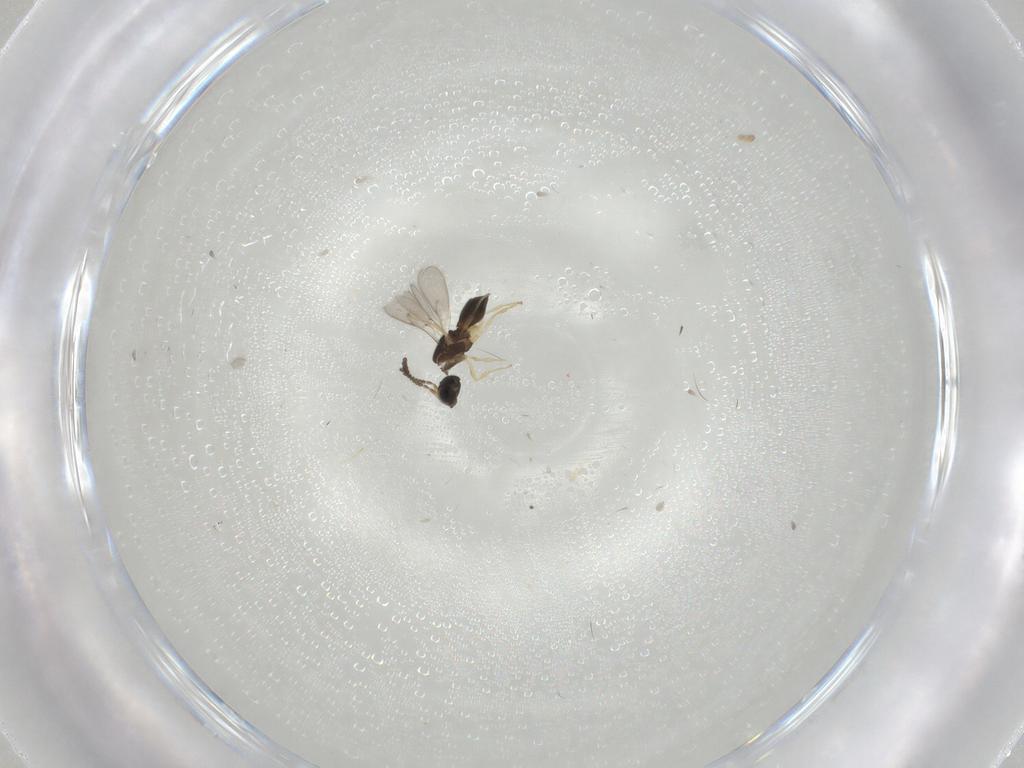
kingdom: Animalia
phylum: Arthropoda
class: Insecta
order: Hymenoptera
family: Scelionidae
